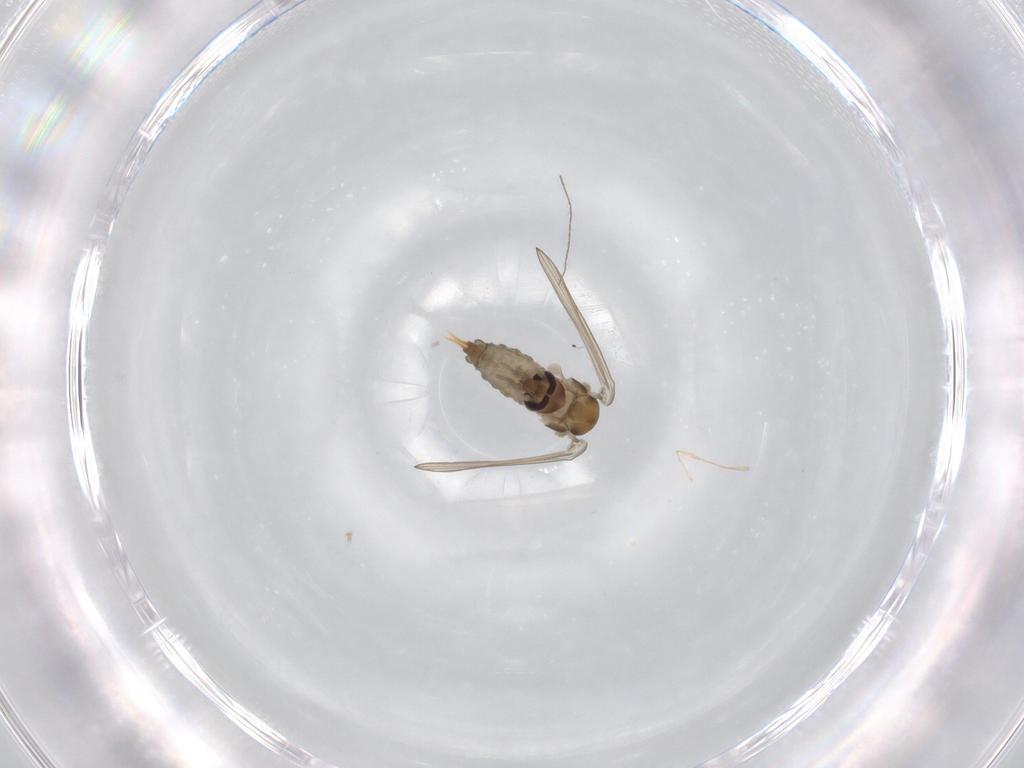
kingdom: Animalia
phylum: Arthropoda
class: Insecta
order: Diptera
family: Psychodidae
